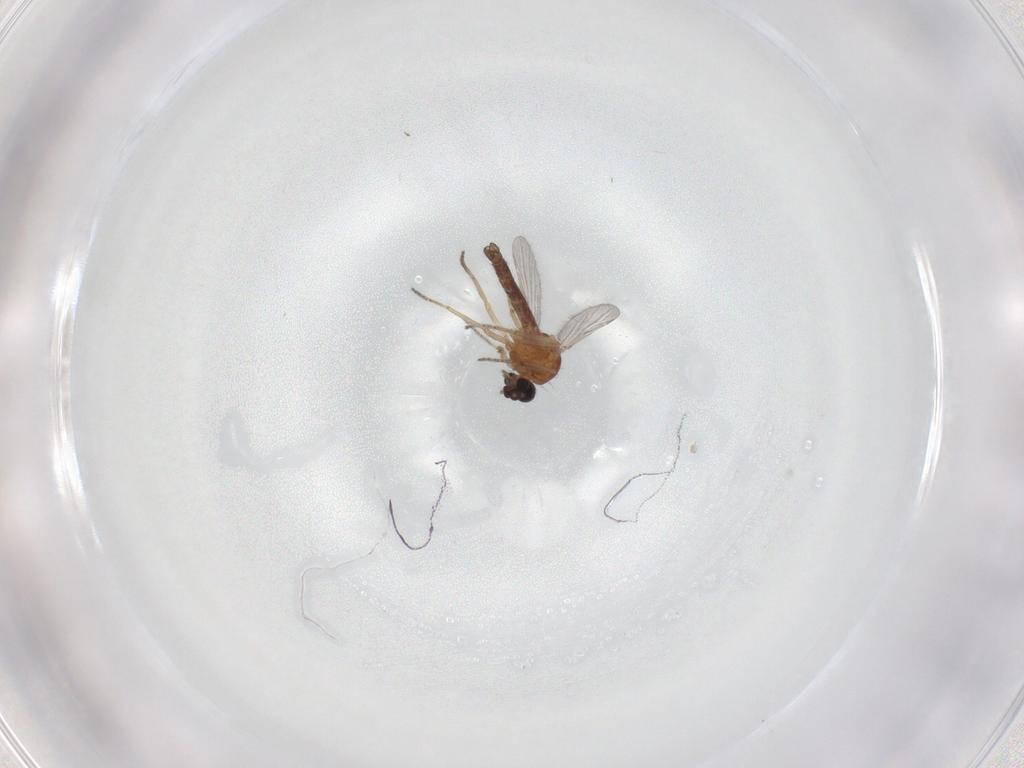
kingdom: Animalia
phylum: Arthropoda
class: Insecta
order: Diptera
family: Ceratopogonidae
